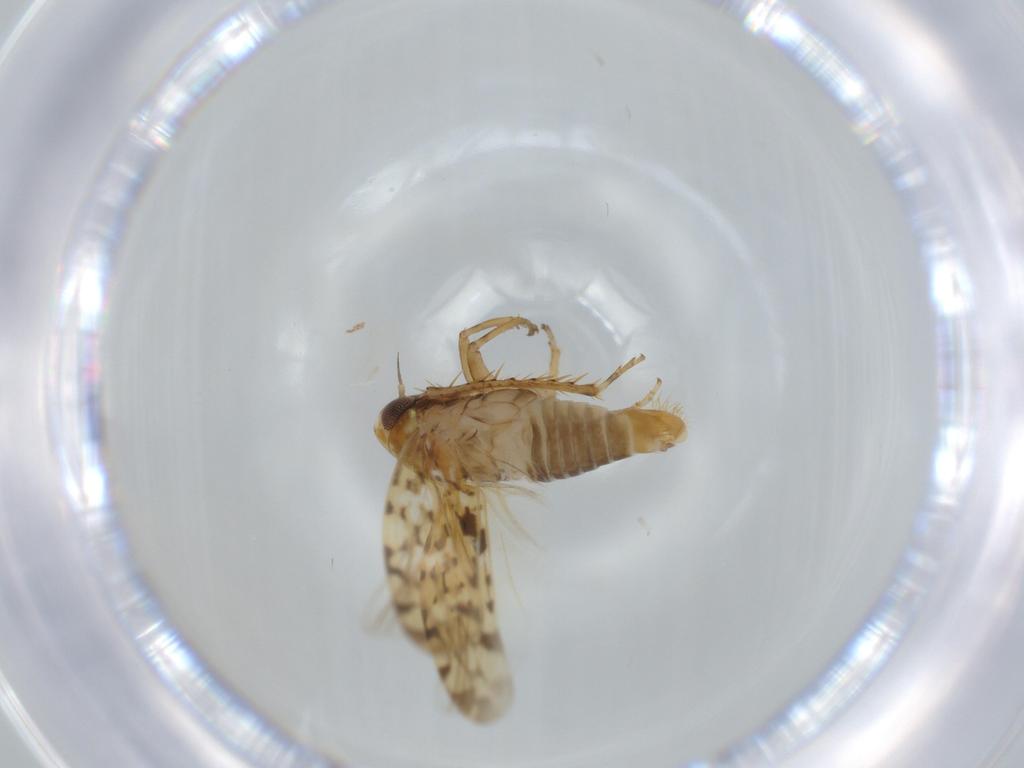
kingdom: Animalia
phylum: Arthropoda
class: Insecta
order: Hemiptera
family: Cicadellidae
